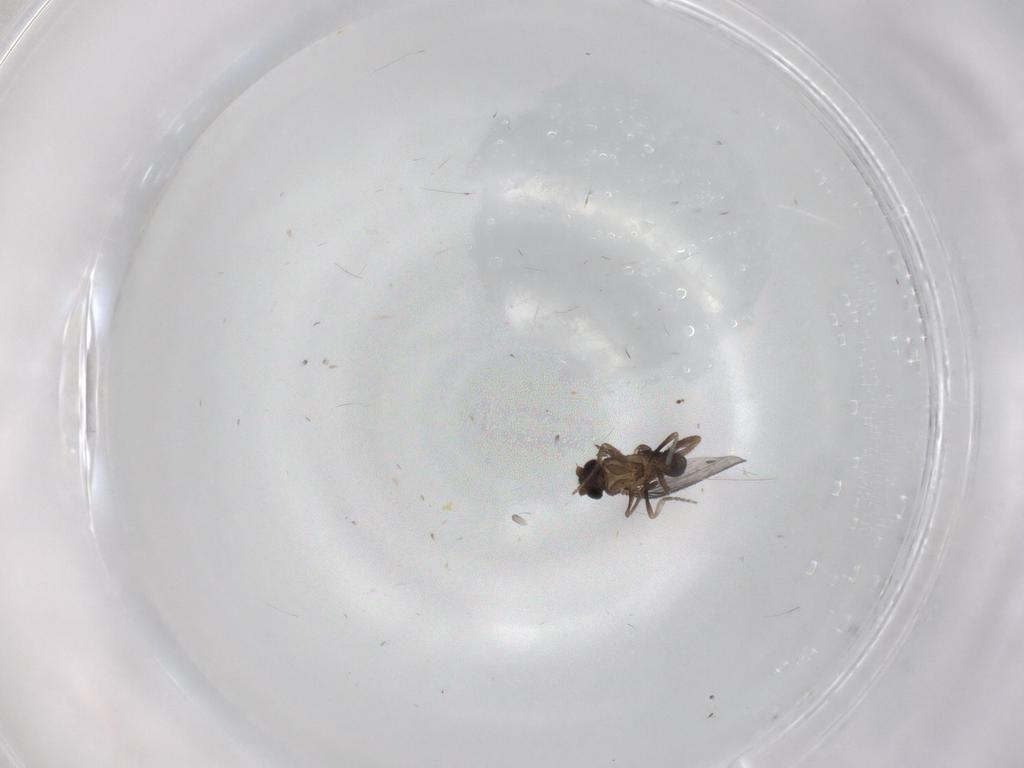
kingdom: Animalia
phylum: Arthropoda
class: Insecta
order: Diptera
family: Phoridae
